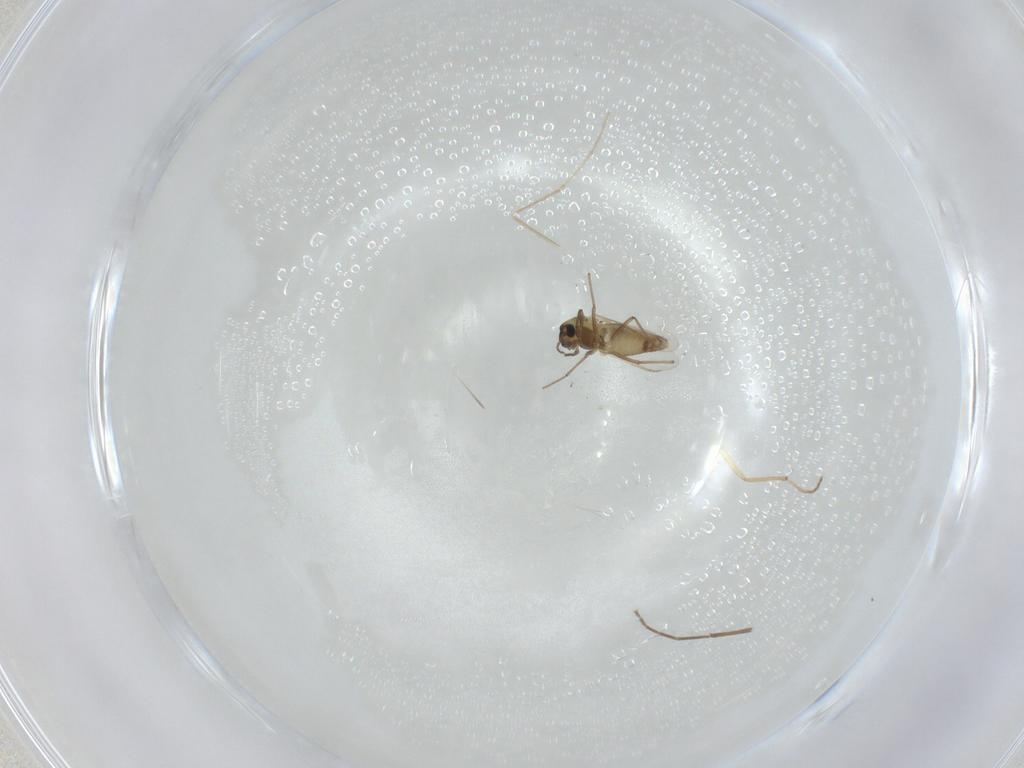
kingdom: Animalia
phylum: Arthropoda
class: Insecta
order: Diptera
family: Chironomidae
